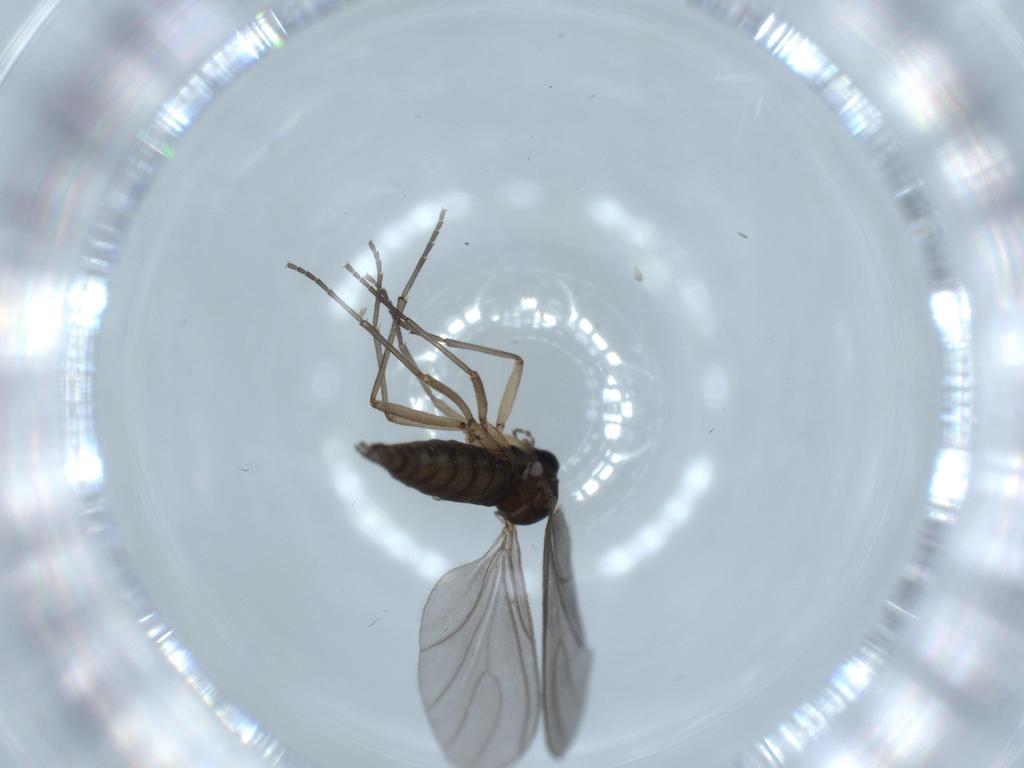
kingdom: Animalia
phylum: Arthropoda
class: Insecta
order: Diptera
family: Sciaridae
